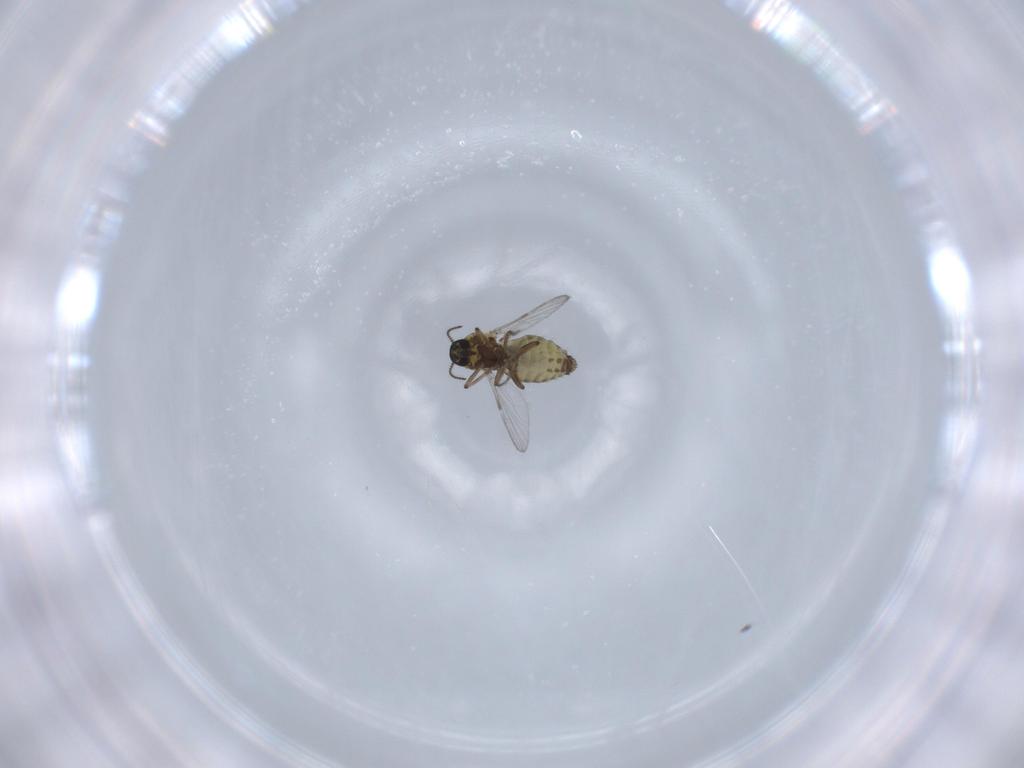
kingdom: Animalia
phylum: Arthropoda
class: Insecta
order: Diptera
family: Ceratopogonidae
